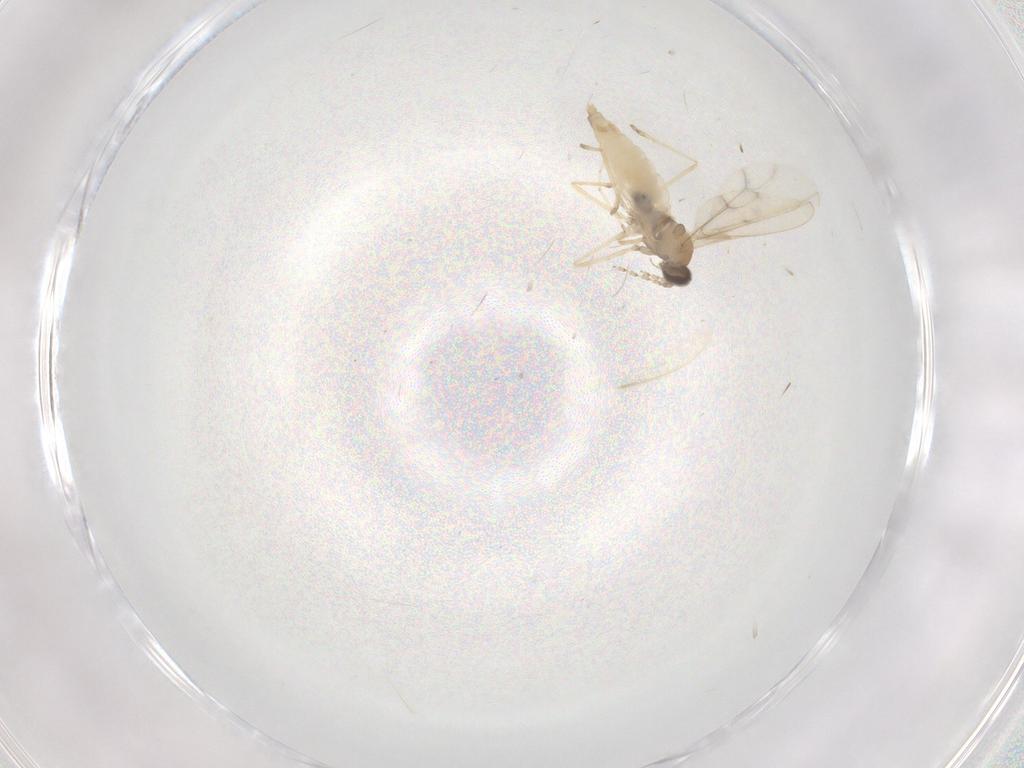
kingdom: Animalia
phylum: Arthropoda
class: Insecta
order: Diptera
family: Cecidomyiidae
